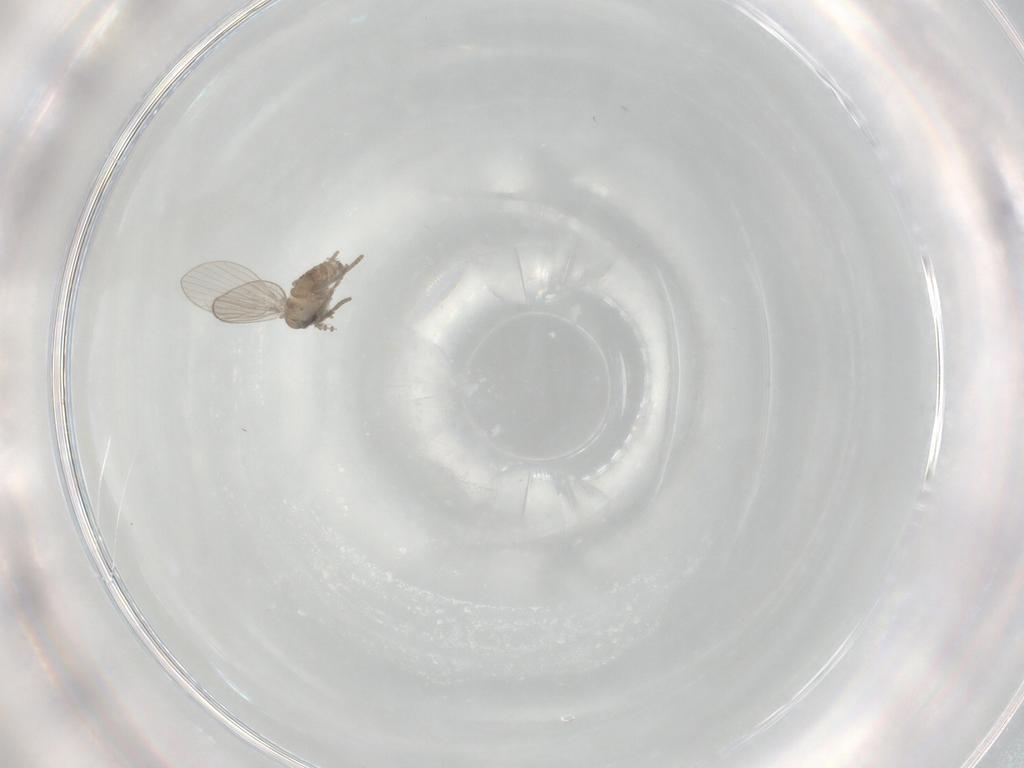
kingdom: Animalia
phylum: Arthropoda
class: Insecta
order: Diptera
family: Psychodidae
